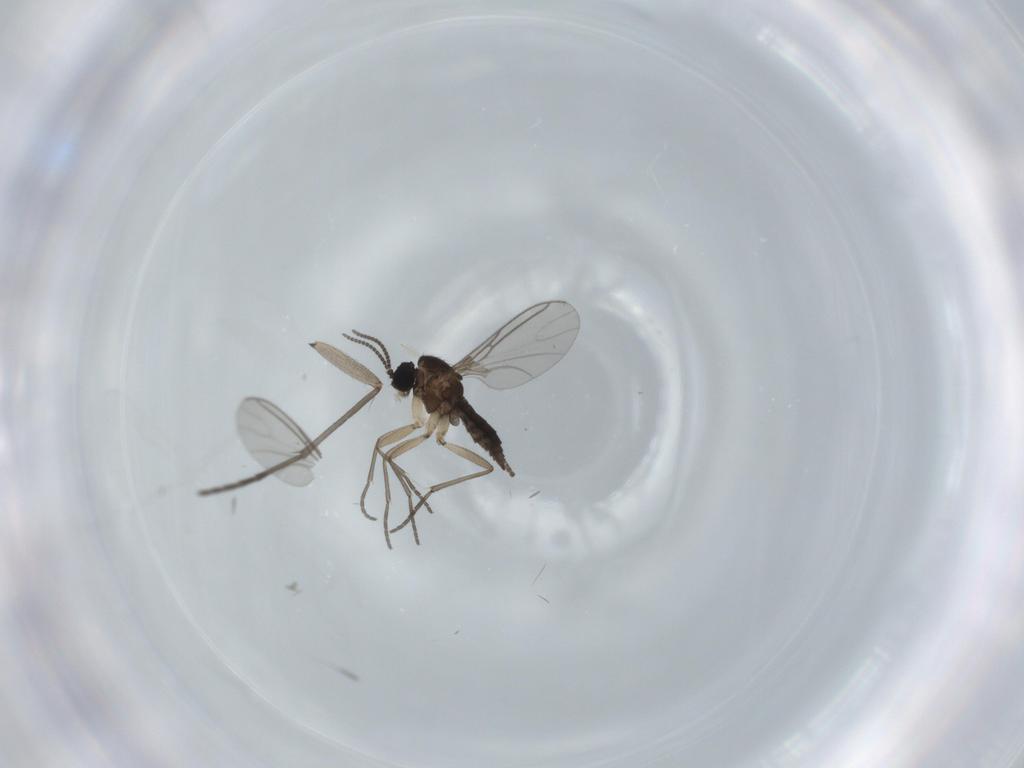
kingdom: Animalia
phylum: Arthropoda
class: Insecta
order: Diptera
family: Sciaridae
